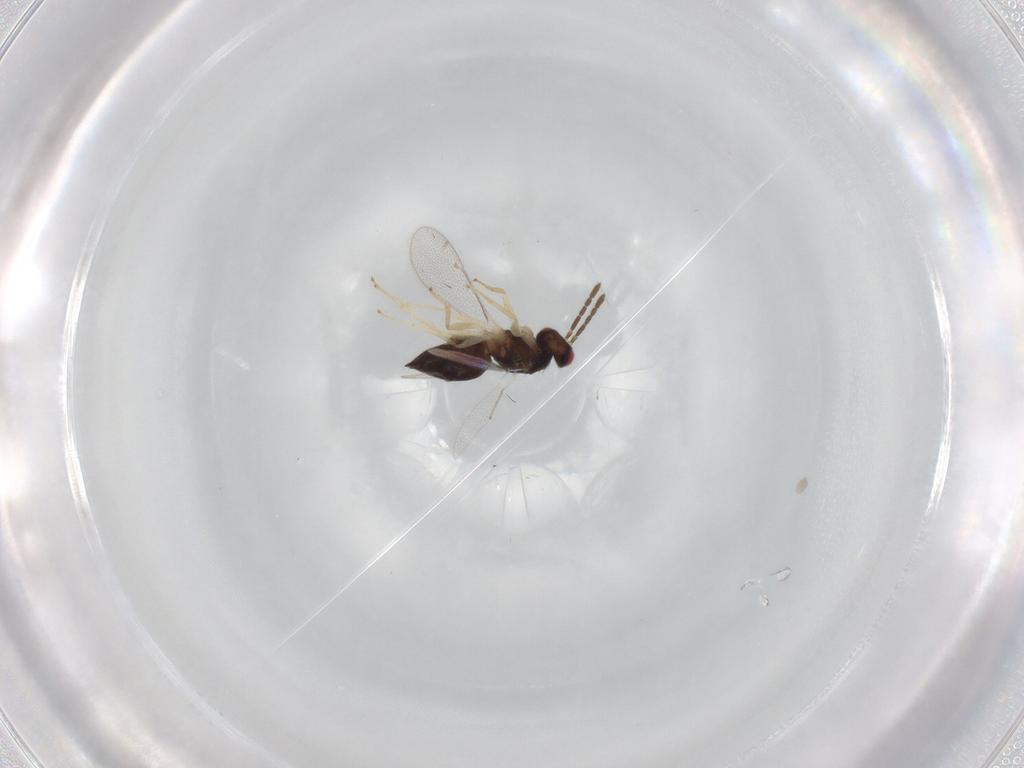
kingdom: Animalia
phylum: Arthropoda
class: Insecta
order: Hymenoptera
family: Eulophidae
